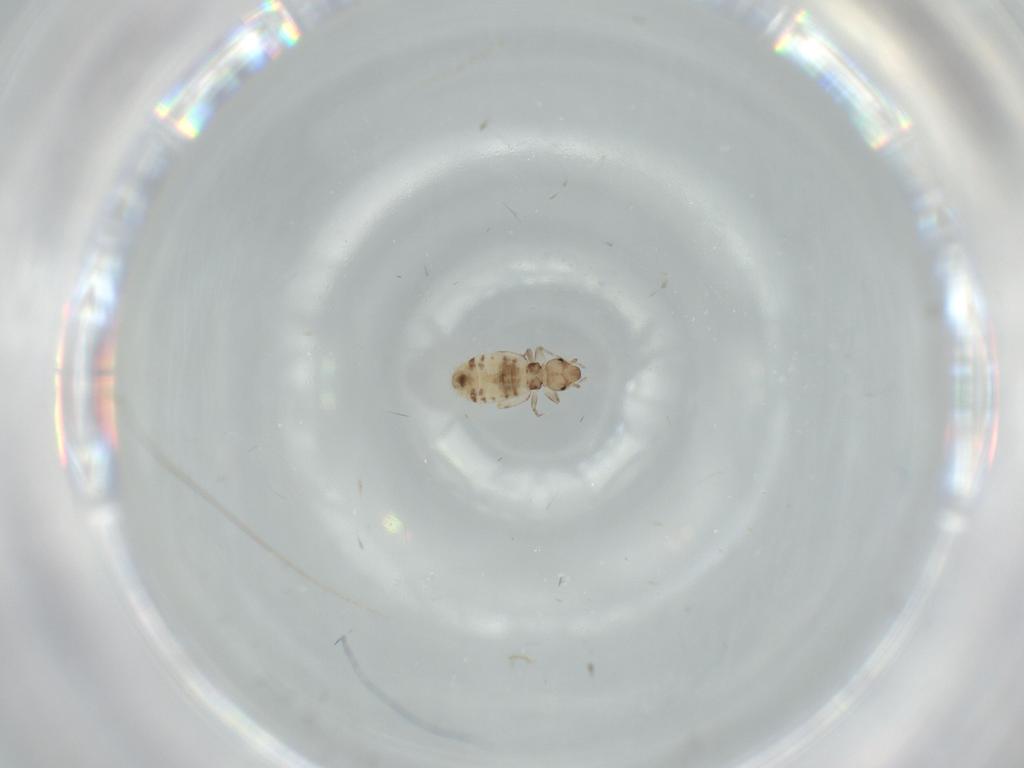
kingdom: Animalia
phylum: Arthropoda
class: Insecta
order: Psocodea
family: Liposcelididae
